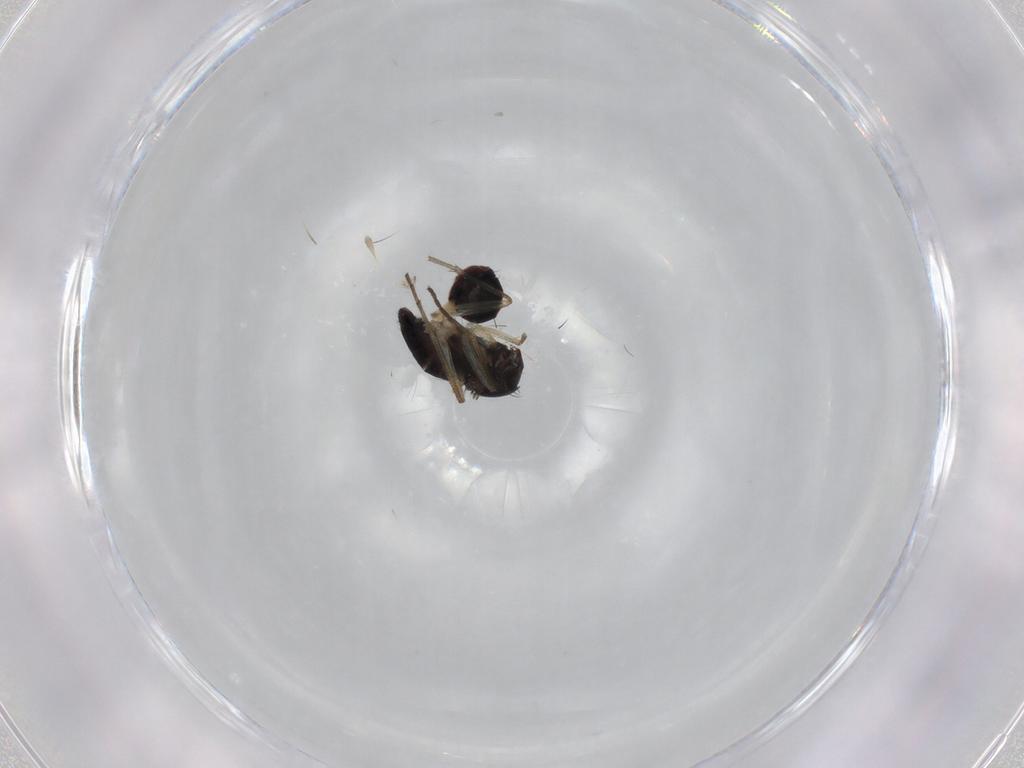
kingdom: Animalia
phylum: Arthropoda
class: Insecta
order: Diptera
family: Dolichopodidae
